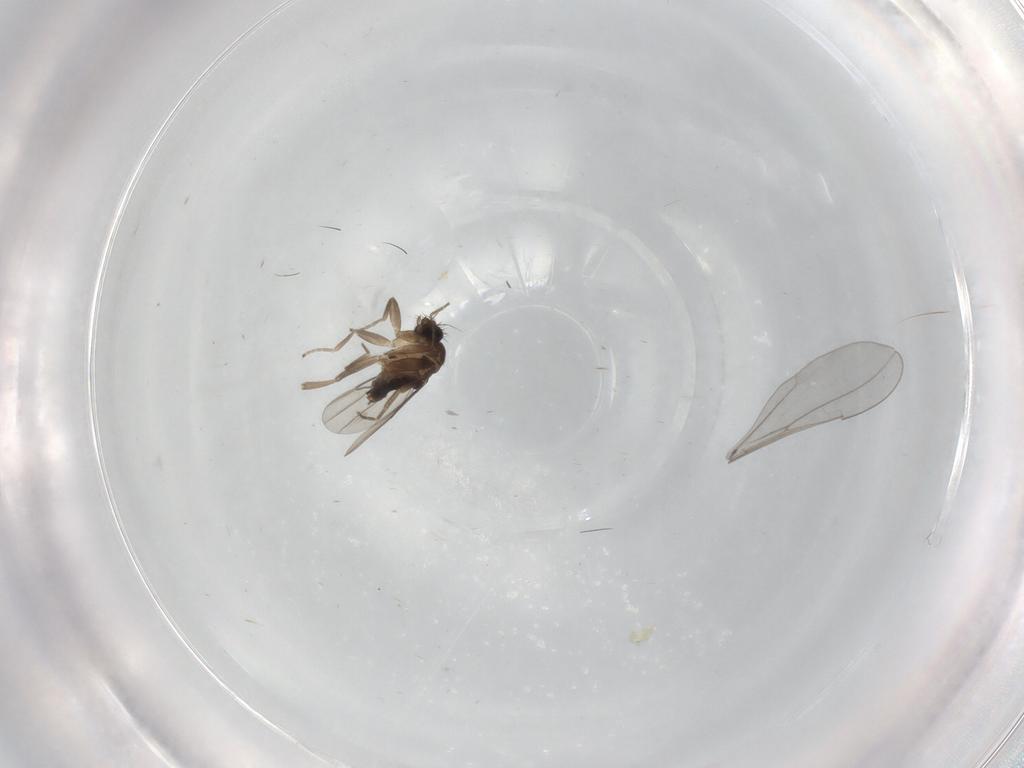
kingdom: Animalia
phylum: Arthropoda
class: Insecta
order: Diptera
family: Phoridae
